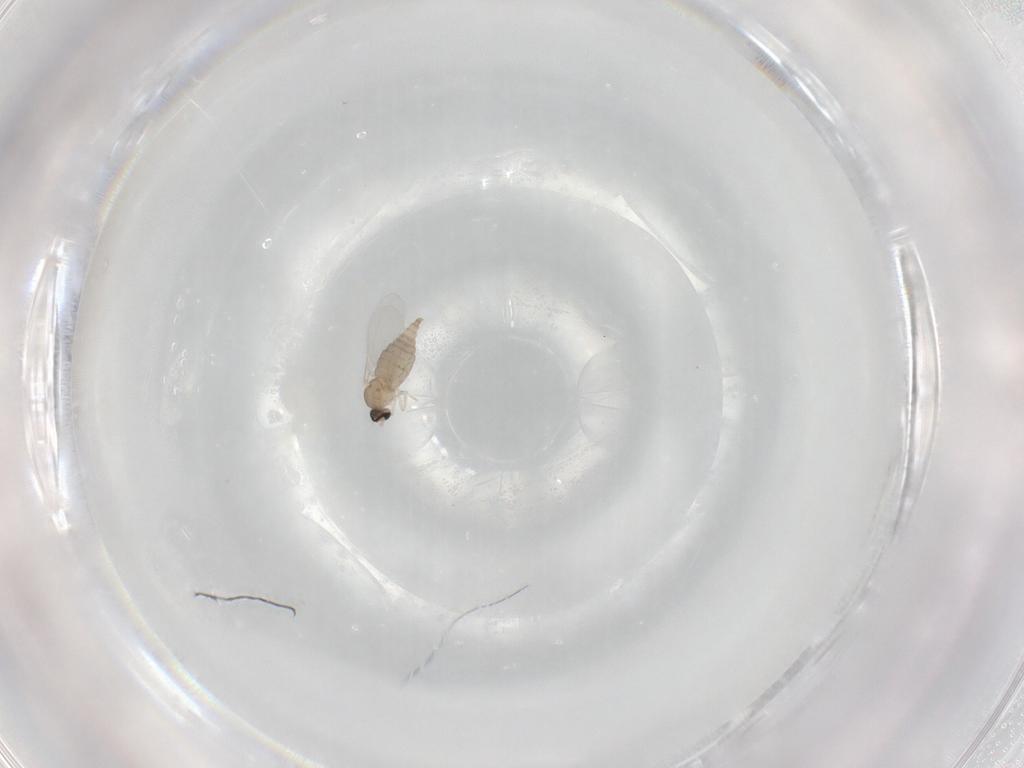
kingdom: Animalia
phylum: Arthropoda
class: Insecta
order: Diptera
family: Cecidomyiidae
